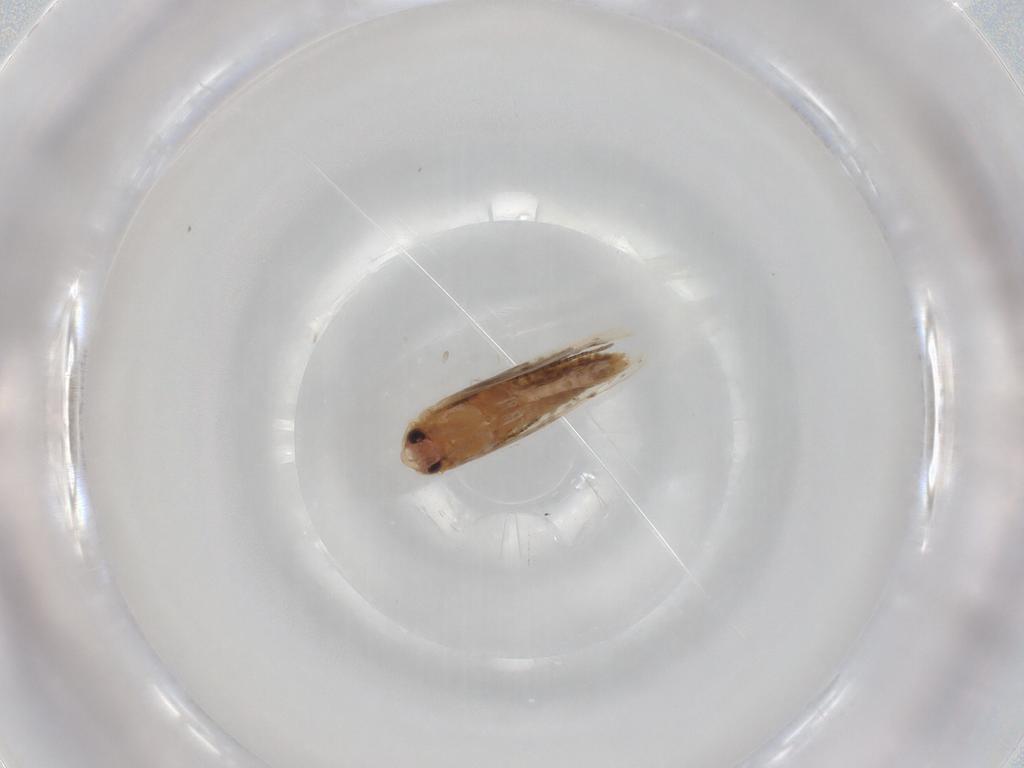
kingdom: Animalia
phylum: Arthropoda
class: Insecta
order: Lepidoptera
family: Bucculatricidae
